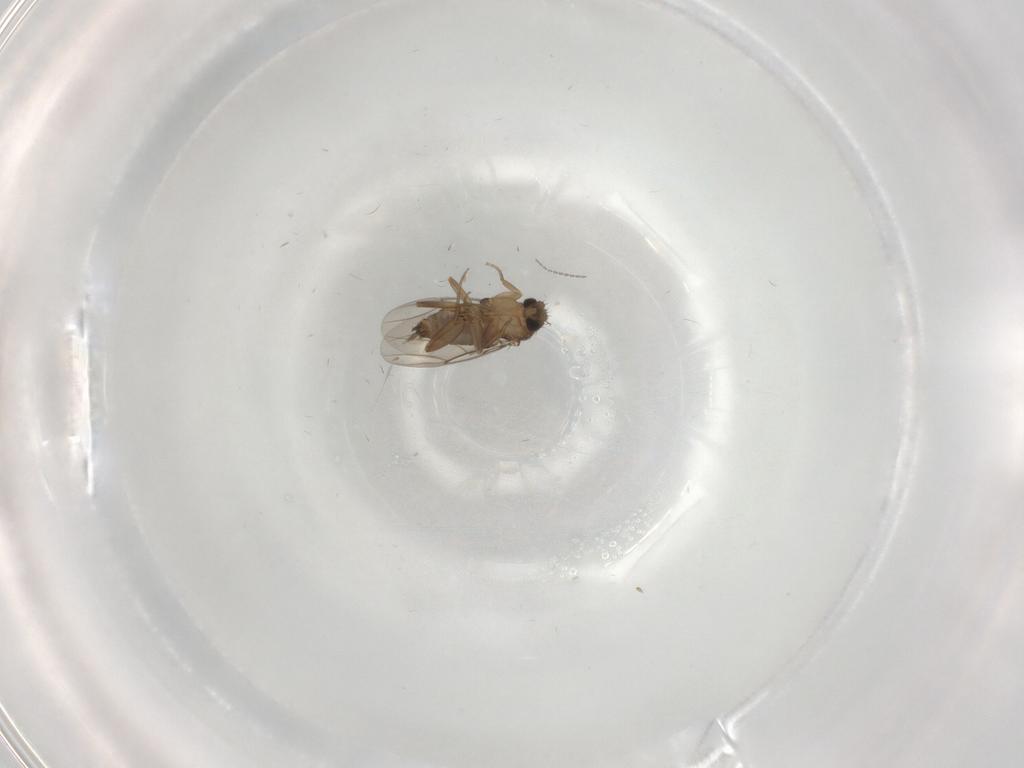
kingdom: Animalia
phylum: Arthropoda
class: Insecta
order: Diptera
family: Cecidomyiidae
